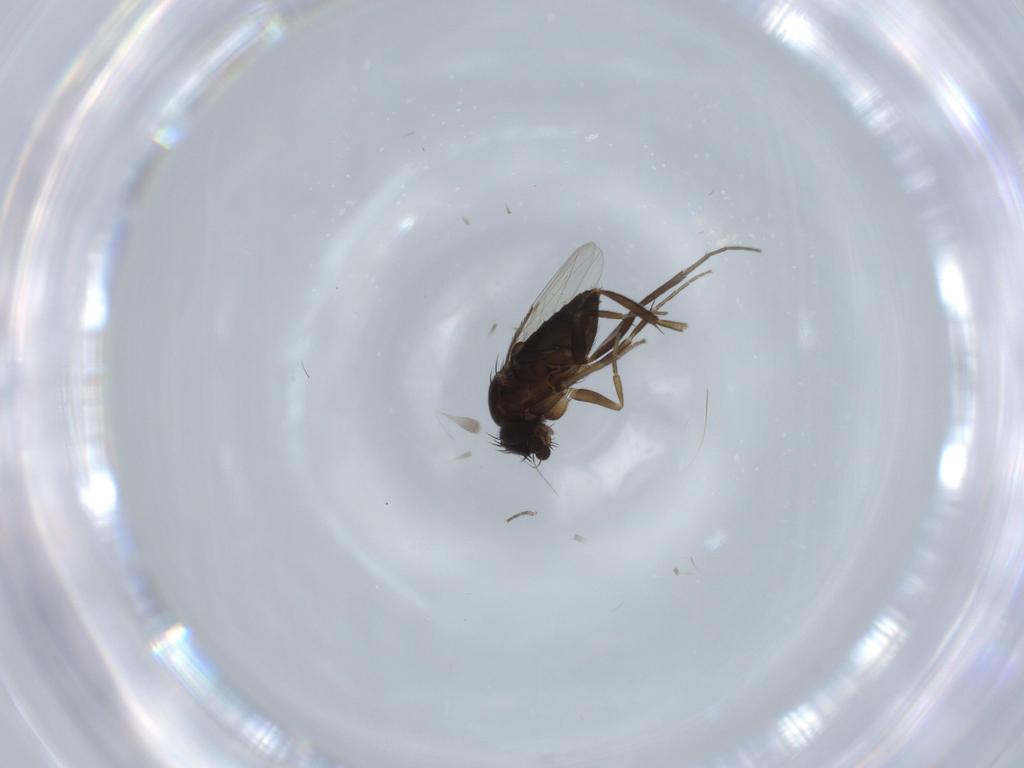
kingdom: Animalia
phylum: Arthropoda
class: Insecta
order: Diptera
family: Phoridae
